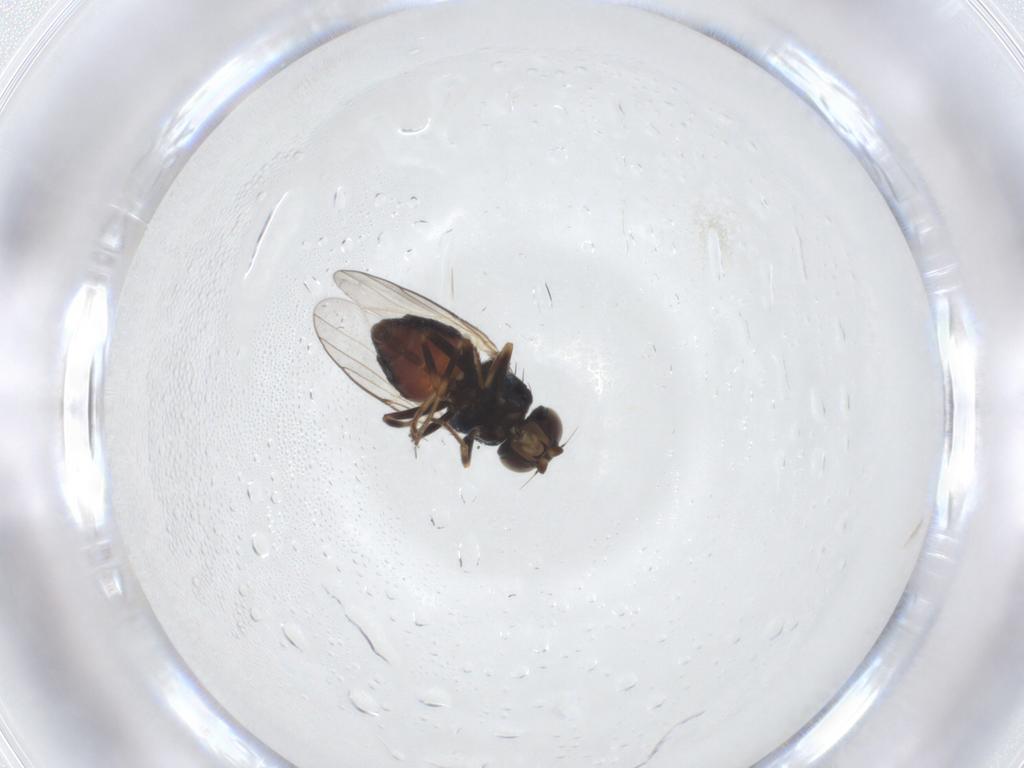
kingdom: Animalia
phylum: Arthropoda
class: Insecta
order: Diptera
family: Chloropidae
